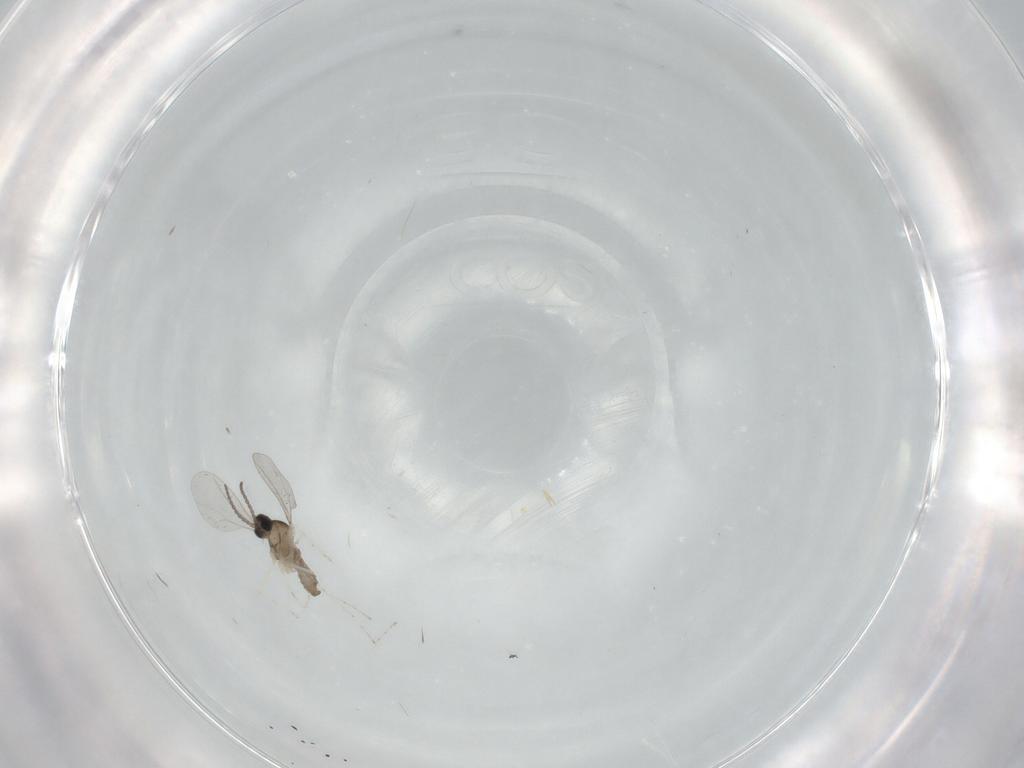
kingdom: Animalia
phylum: Arthropoda
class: Insecta
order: Diptera
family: Cecidomyiidae
